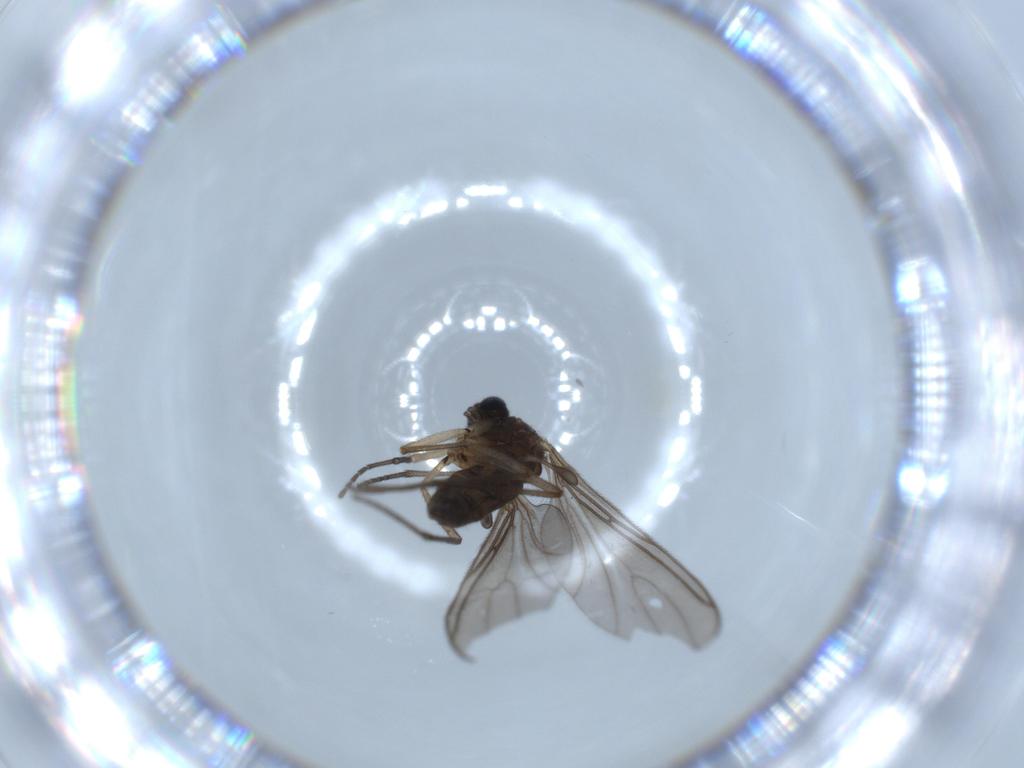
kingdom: Animalia
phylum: Arthropoda
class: Insecta
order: Diptera
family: Sciaridae
